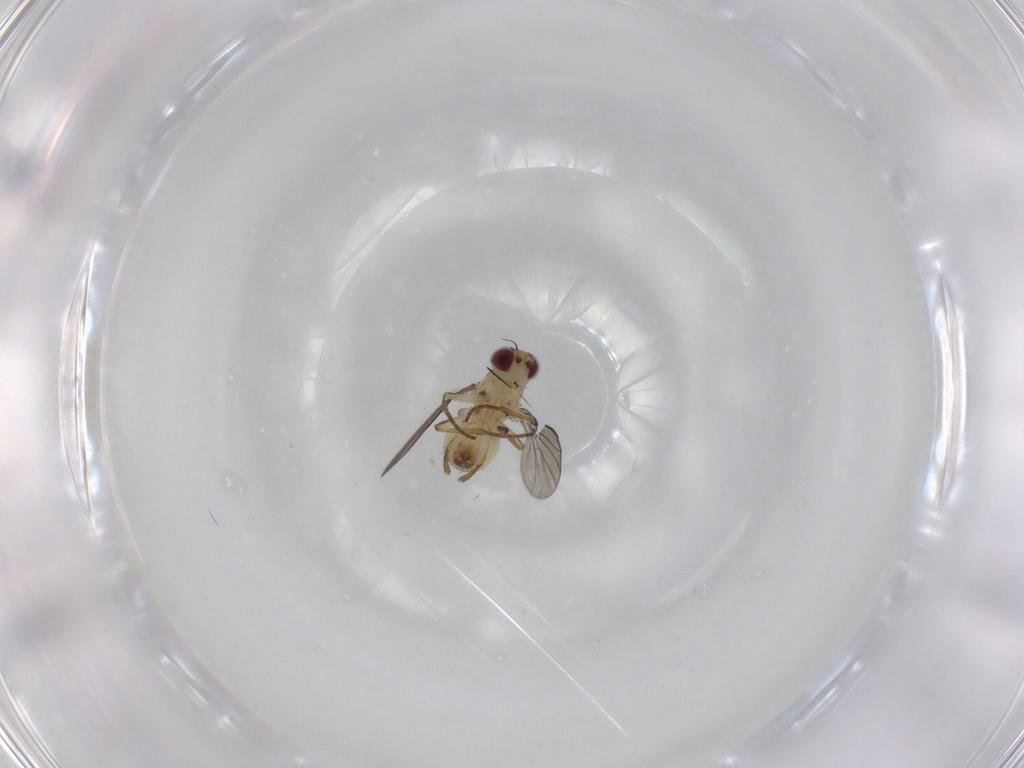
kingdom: Animalia
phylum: Arthropoda
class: Insecta
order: Diptera
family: Agromyzidae
